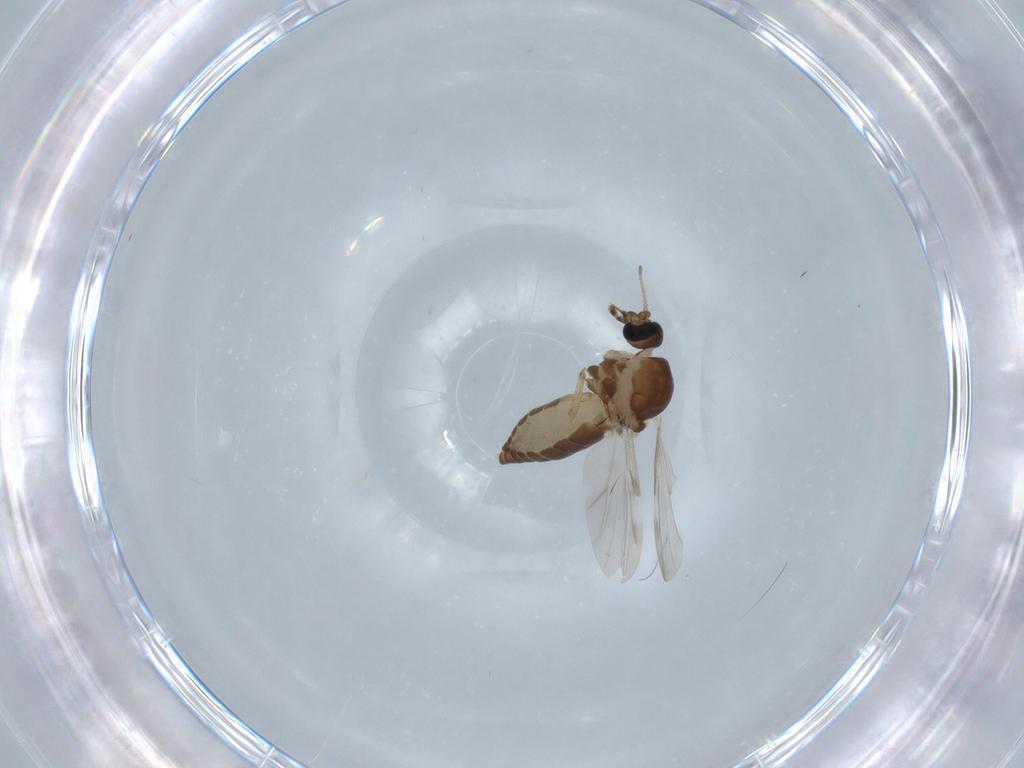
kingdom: Animalia
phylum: Arthropoda
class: Insecta
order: Diptera
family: Ceratopogonidae
